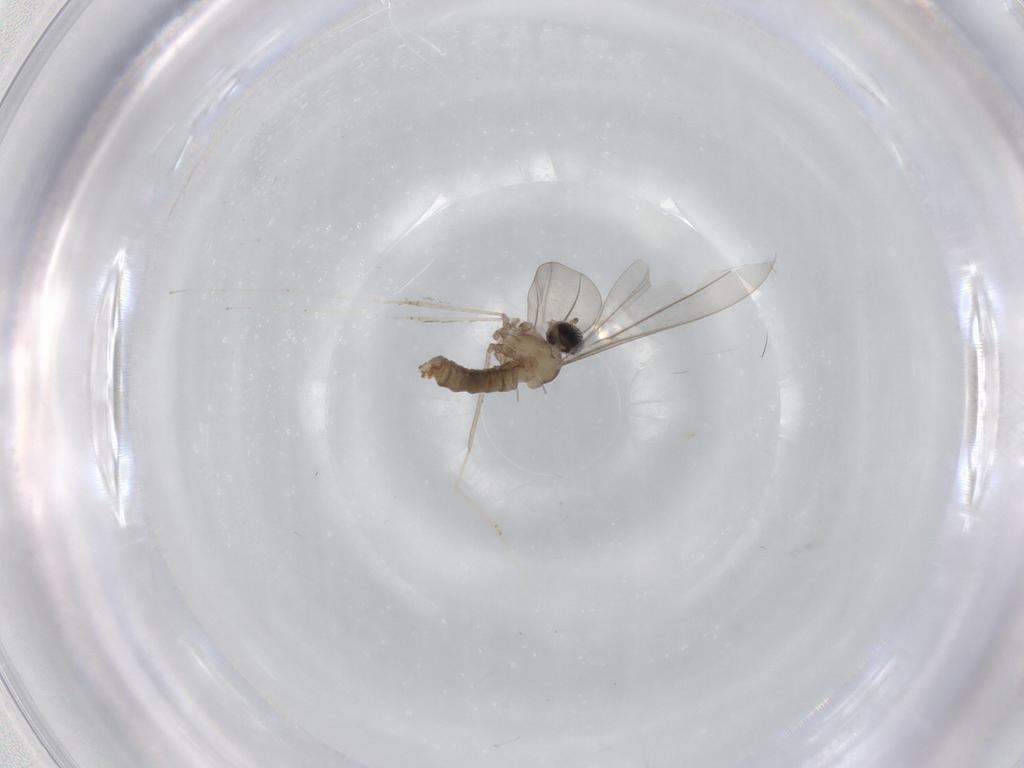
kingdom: Animalia
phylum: Arthropoda
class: Insecta
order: Diptera
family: Cecidomyiidae
